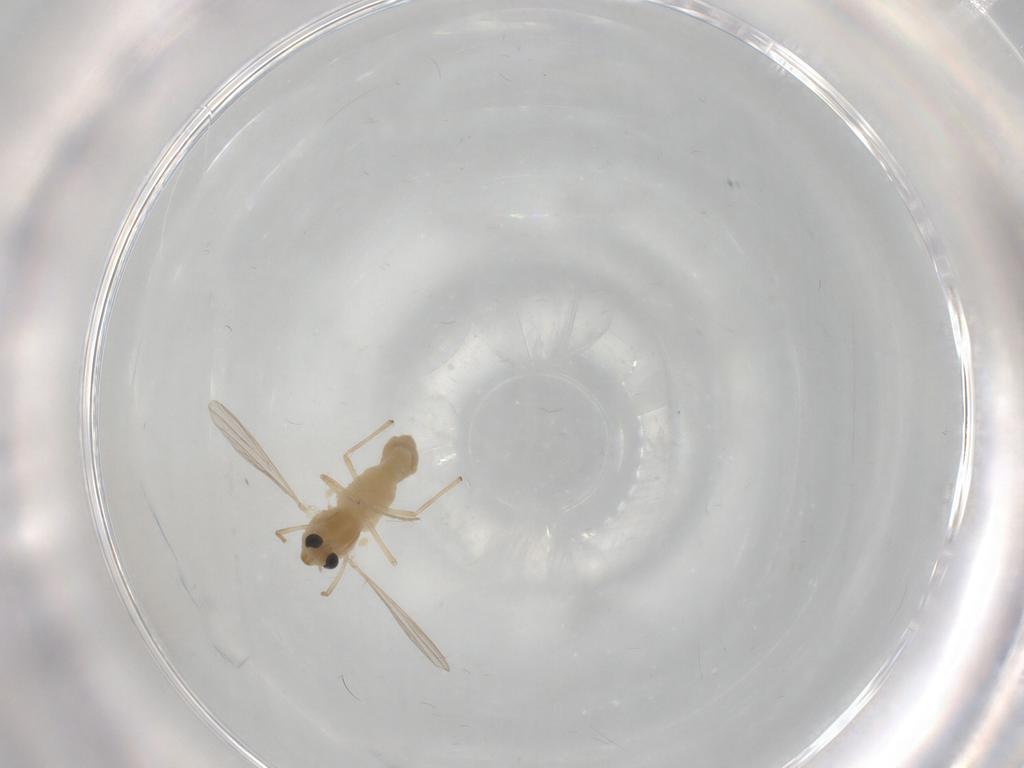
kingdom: Animalia
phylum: Arthropoda
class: Insecta
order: Diptera
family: Chironomidae
